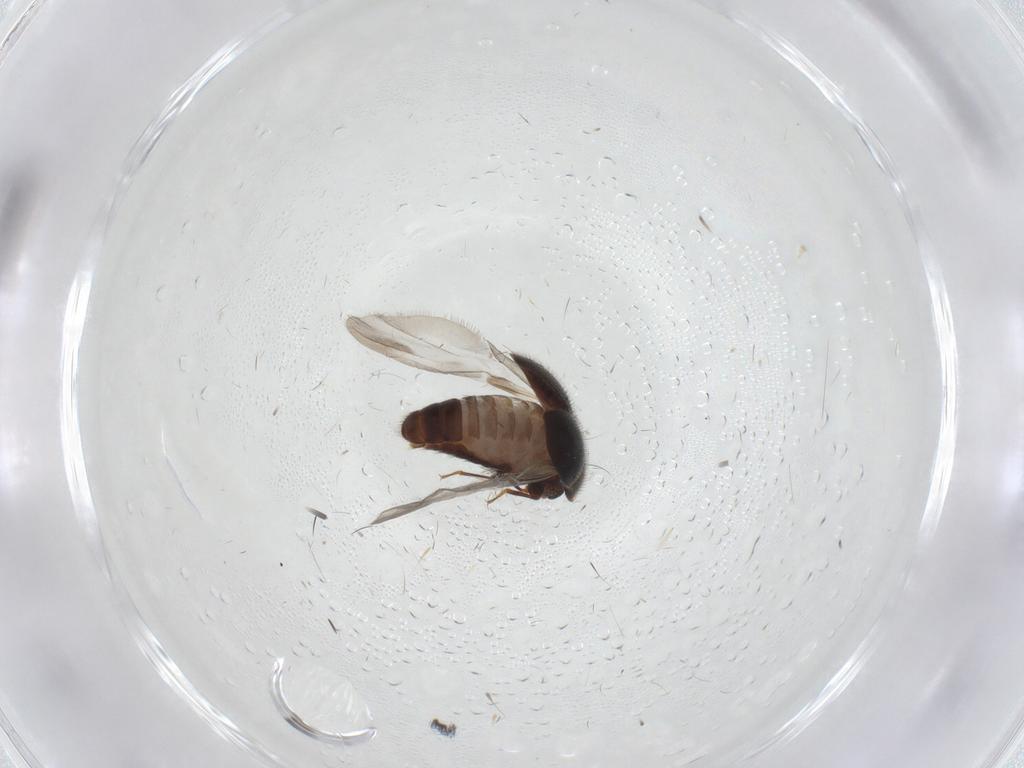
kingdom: Animalia
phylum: Arthropoda
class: Insecta
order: Coleoptera
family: Corylophidae
